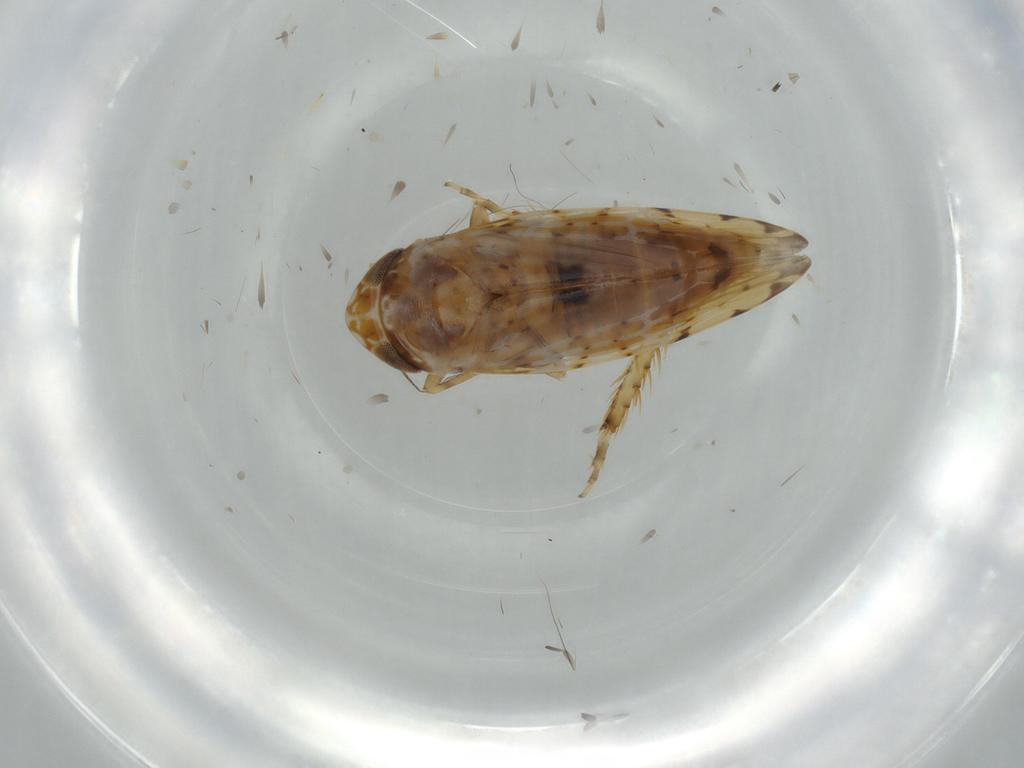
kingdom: Animalia
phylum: Arthropoda
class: Insecta
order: Hemiptera
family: Cicadellidae
